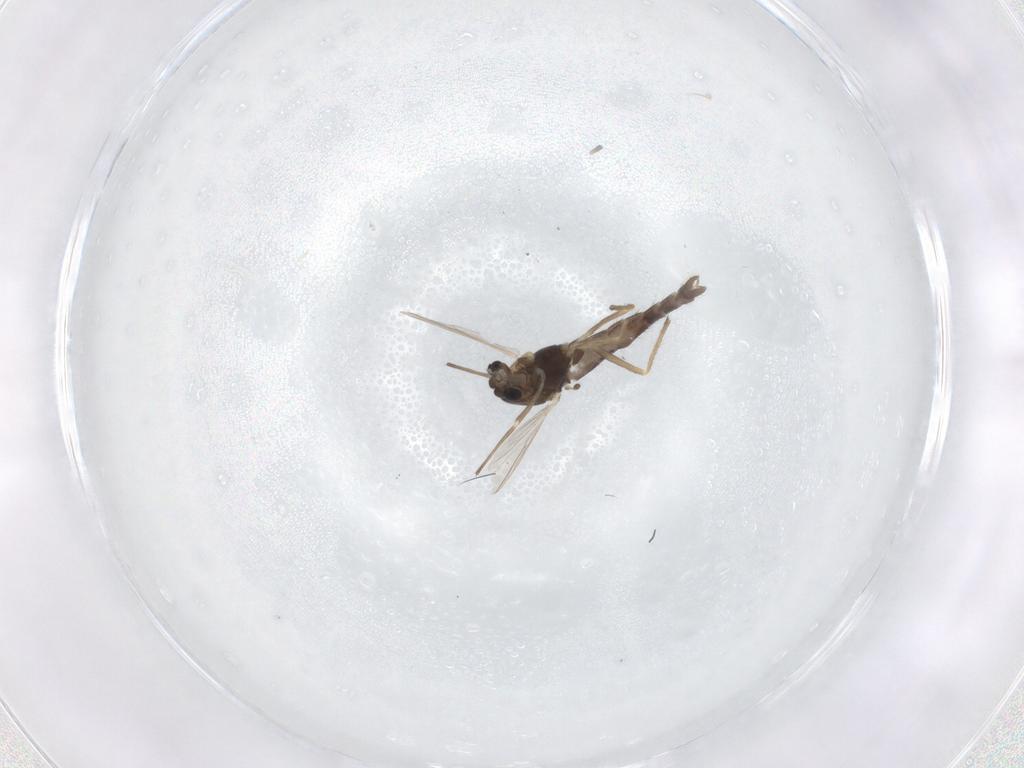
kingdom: Animalia
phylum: Arthropoda
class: Insecta
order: Diptera
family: Chironomidae
